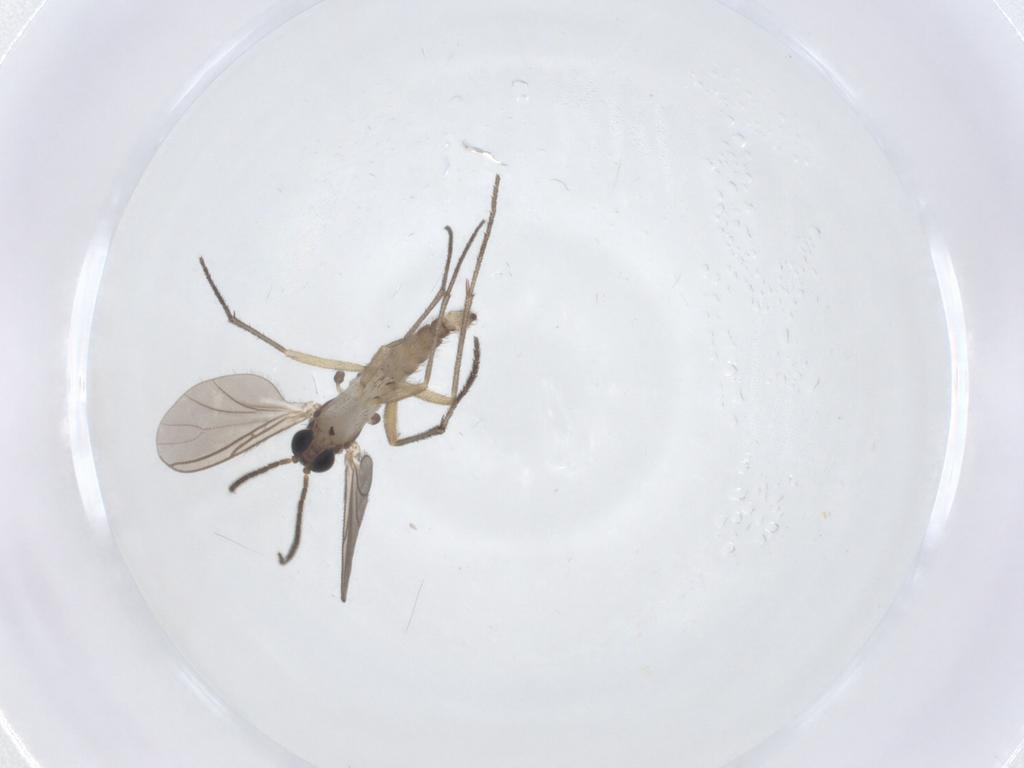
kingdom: Animalia
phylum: Arthropoda
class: Insecta
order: Diptera
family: Sciaridae
